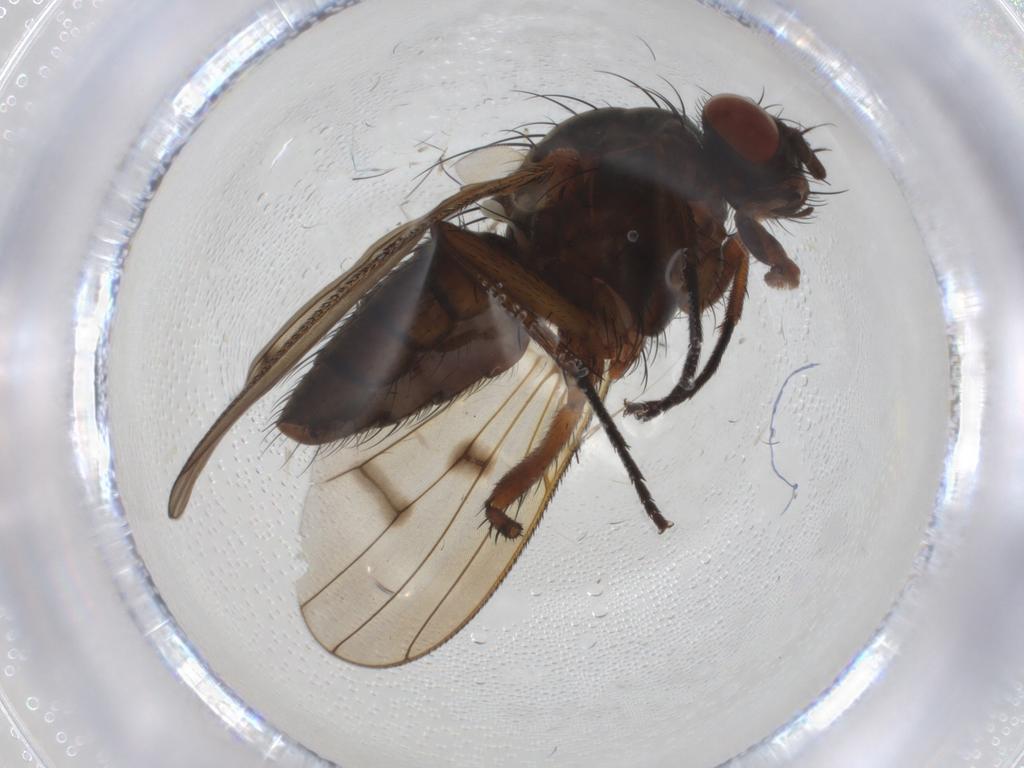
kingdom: Animalia
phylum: Arthropoda
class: Insecta
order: Diptera
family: Anthomyiidae
